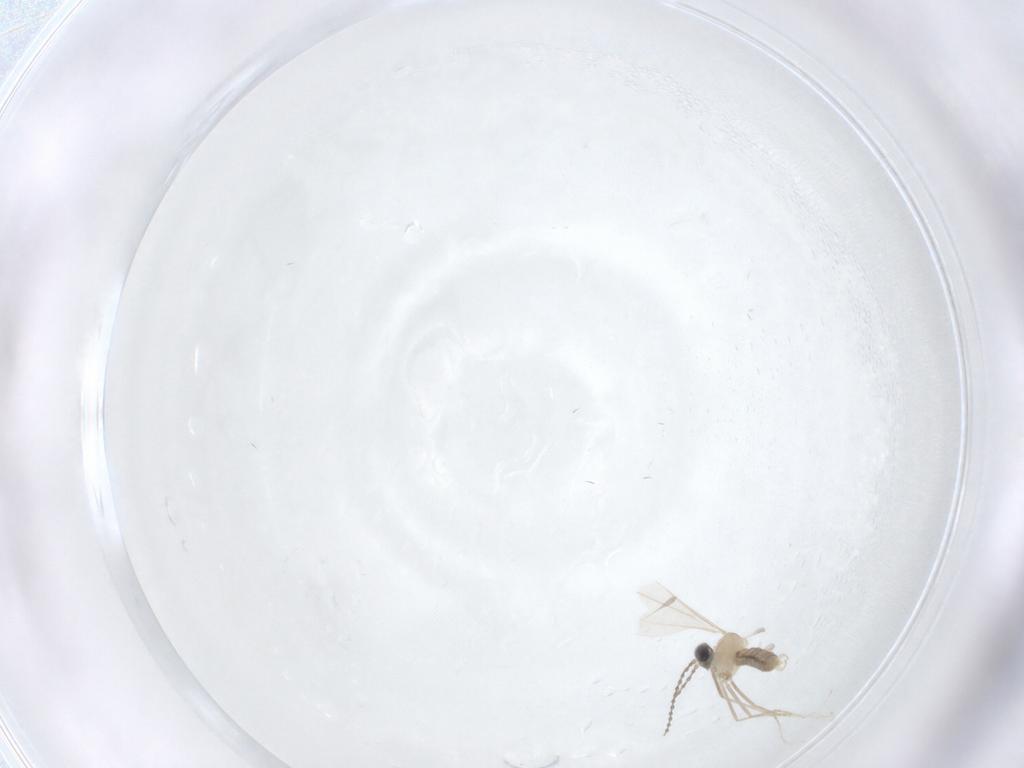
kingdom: Animalia
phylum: Arthropoda
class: Insecta
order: Diptera
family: Cecidomyiidae
